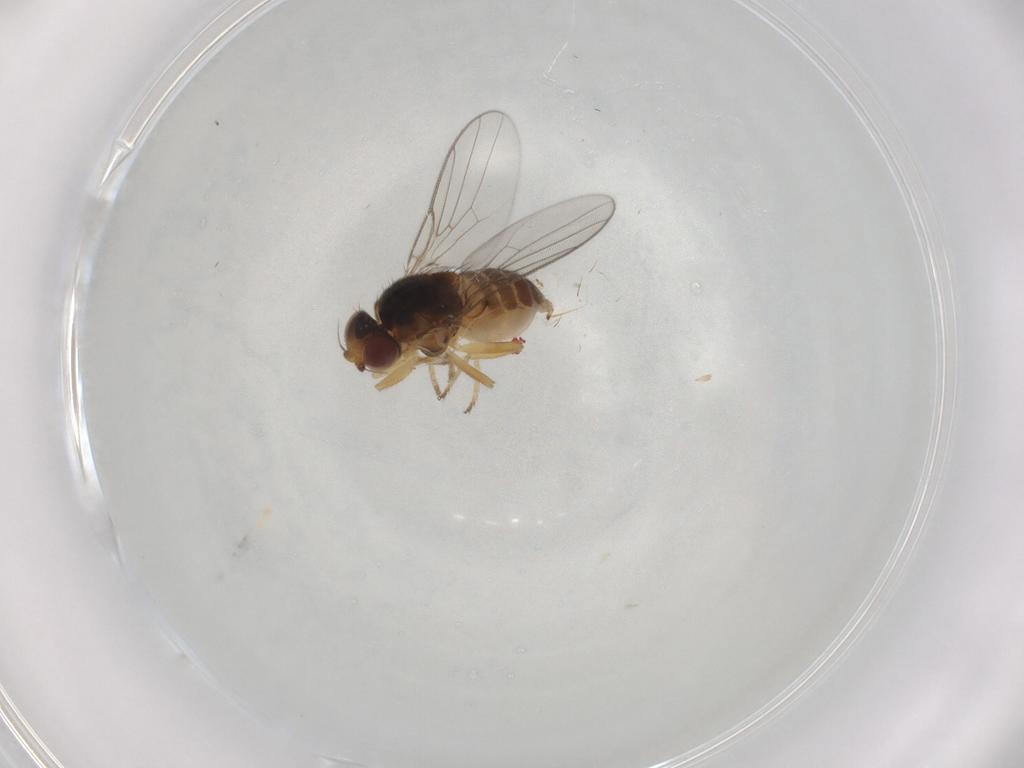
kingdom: Animalia
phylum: Arthropoda
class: Insecta
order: Diptera
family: Chloropidae
